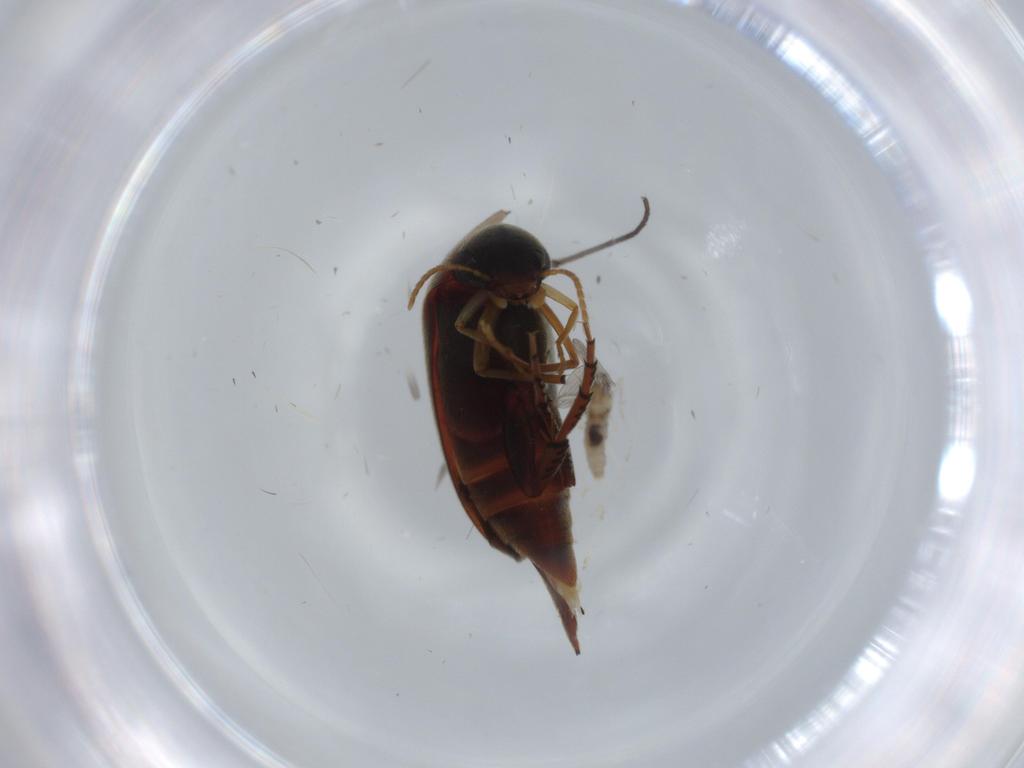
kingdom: Animalia
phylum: Arthropoda
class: Insecta
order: Diptera
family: Cecidomyiidae
